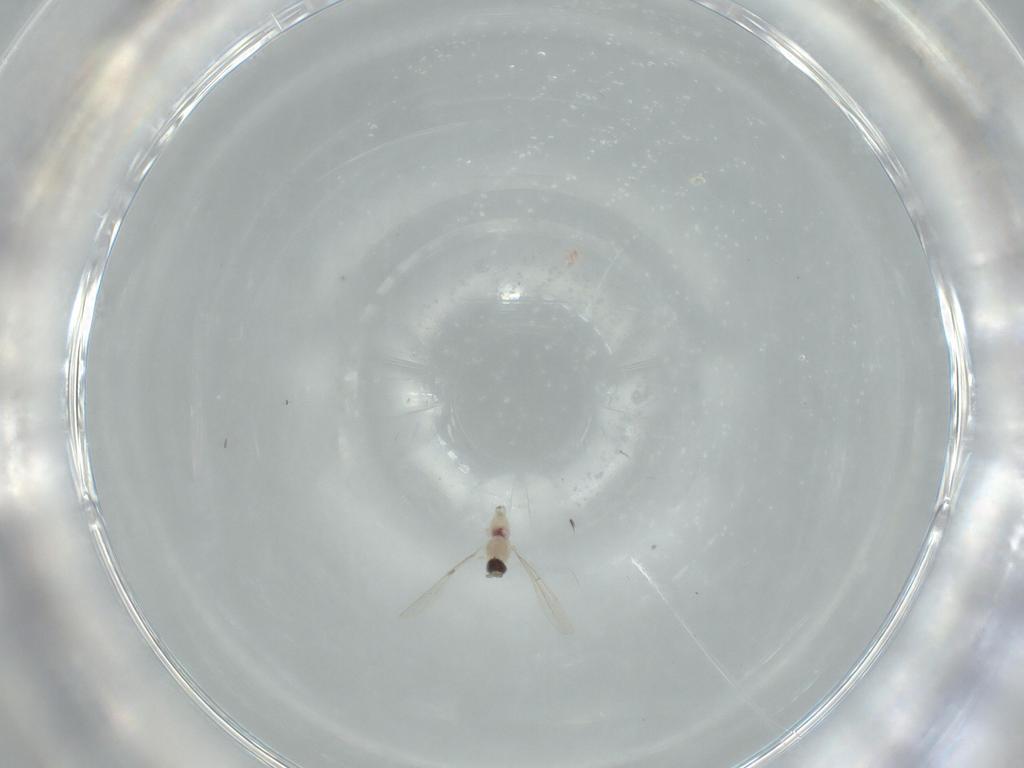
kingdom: Animalia
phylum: Arthropoda
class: Insecta
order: Diptera
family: Cecidomyiidae
